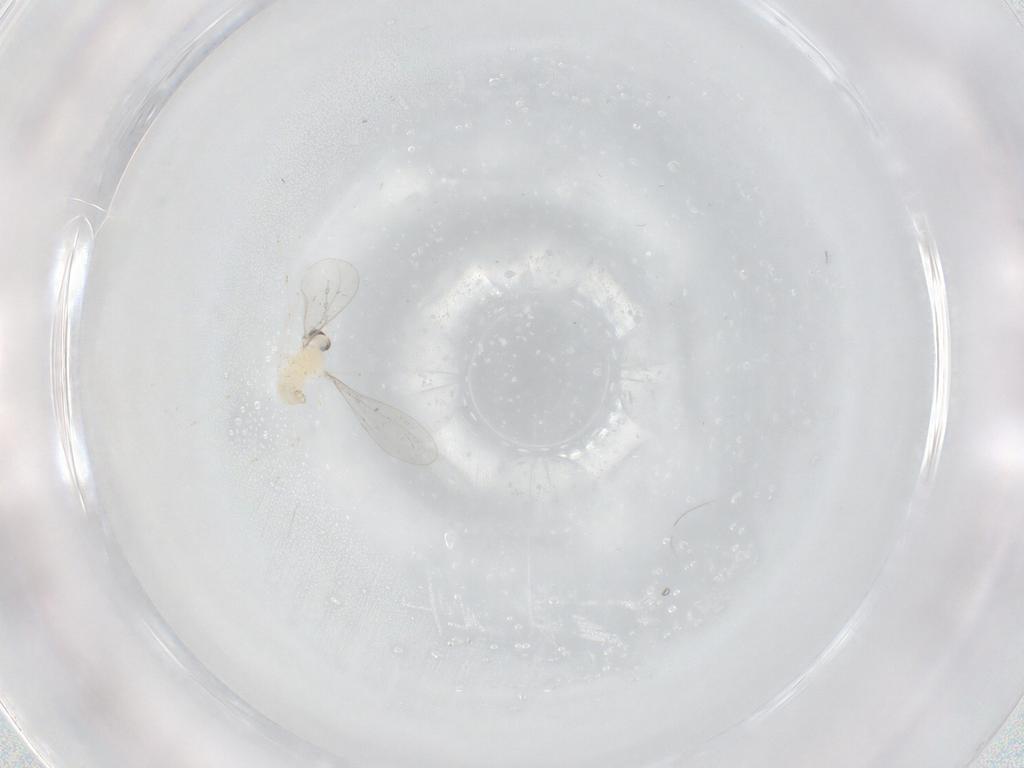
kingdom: Animalia
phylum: Arthropoda
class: Insecta
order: Diptera
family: Cecidomyiidae
